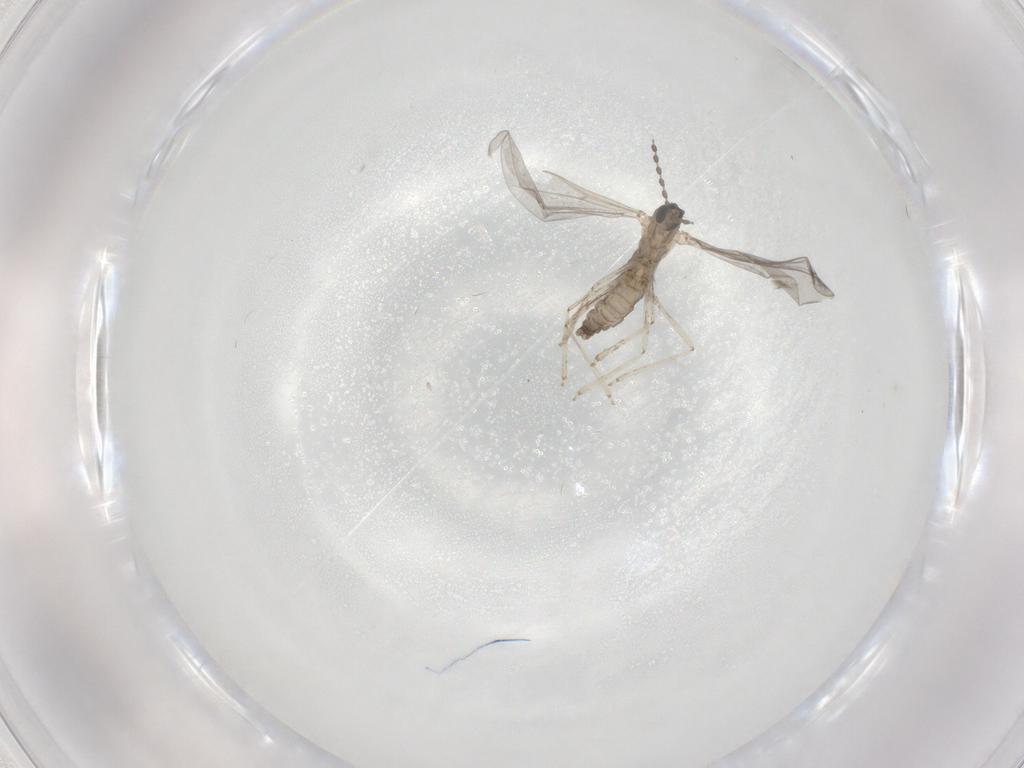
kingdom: Animalia
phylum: Arthropoda
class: Insecta
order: Diptera
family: Cecidomyiidae
